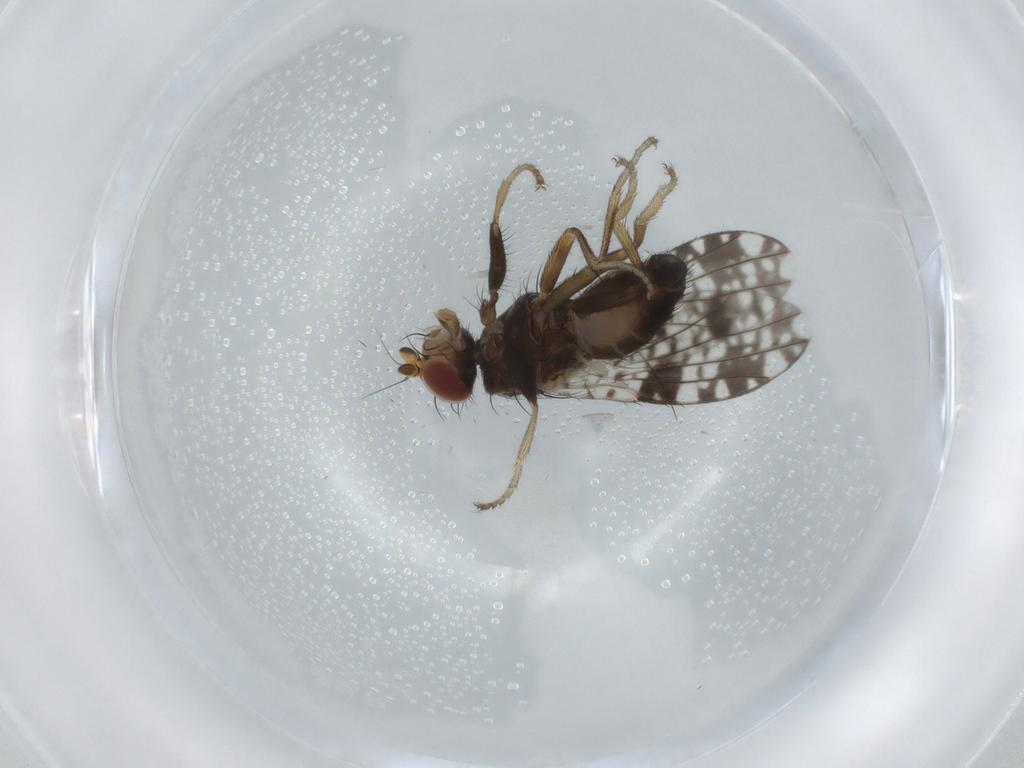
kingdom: Animalia
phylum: Arthropoda
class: Insecta
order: Diptera
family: Tephritidae
